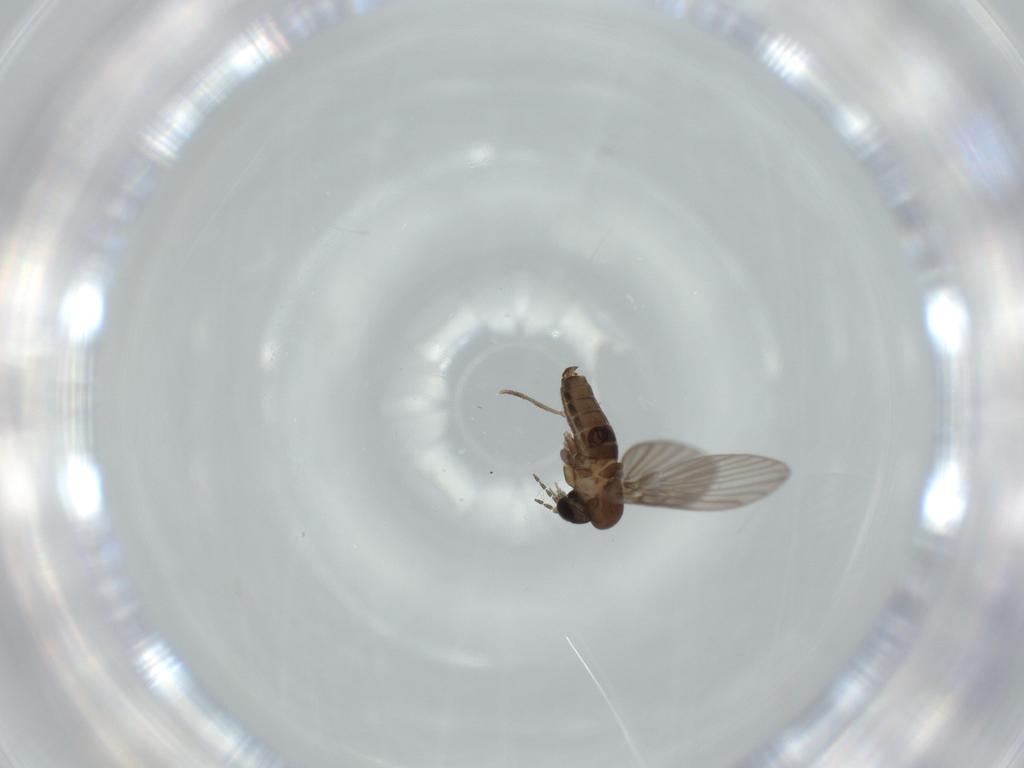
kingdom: Animalia
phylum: Arthropoda
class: Insecta
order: Diptera
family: Psychodidae
